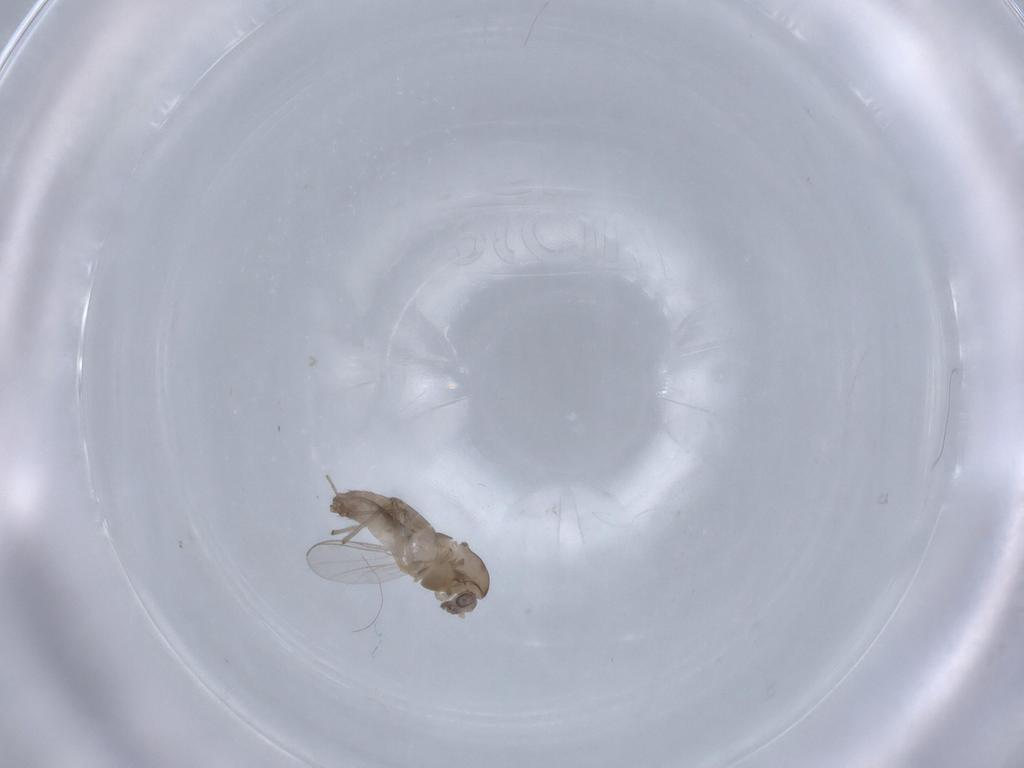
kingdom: Animalia
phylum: Arthropoda
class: Insecta
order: Diptera
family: Chironomidae
